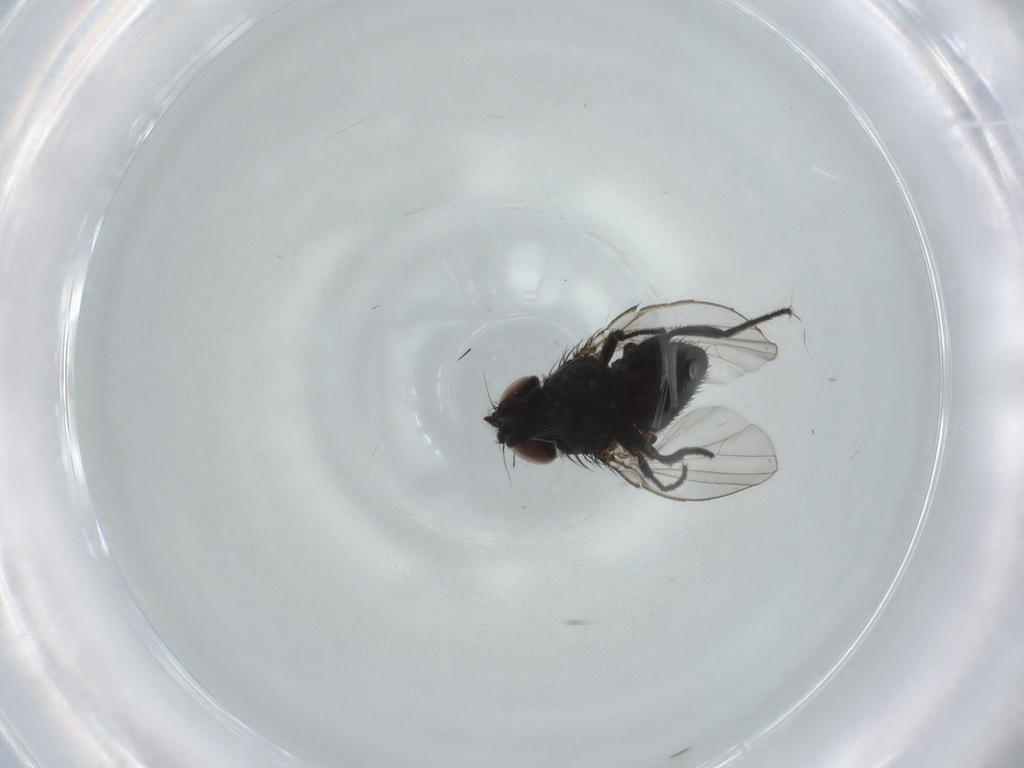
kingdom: Animalia
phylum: Arthropoda
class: Insecta
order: Diptera
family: Milichiidae
